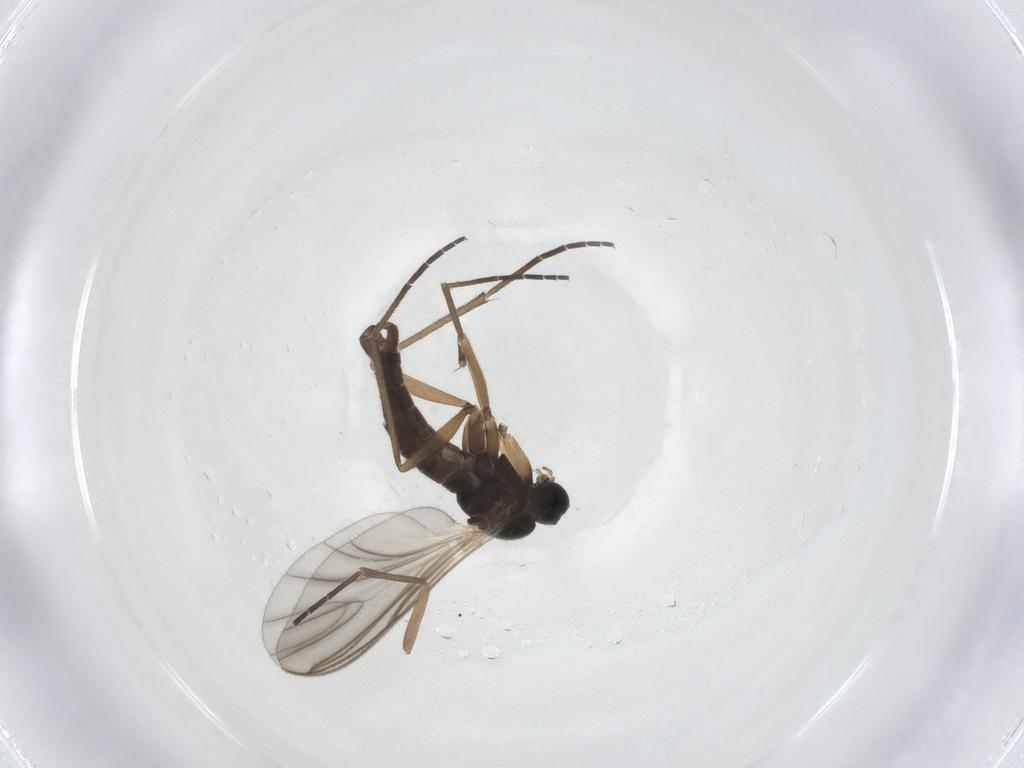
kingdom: Animalia
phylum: Arthropoda
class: Insecta
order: Diptera
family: Sciaridae
